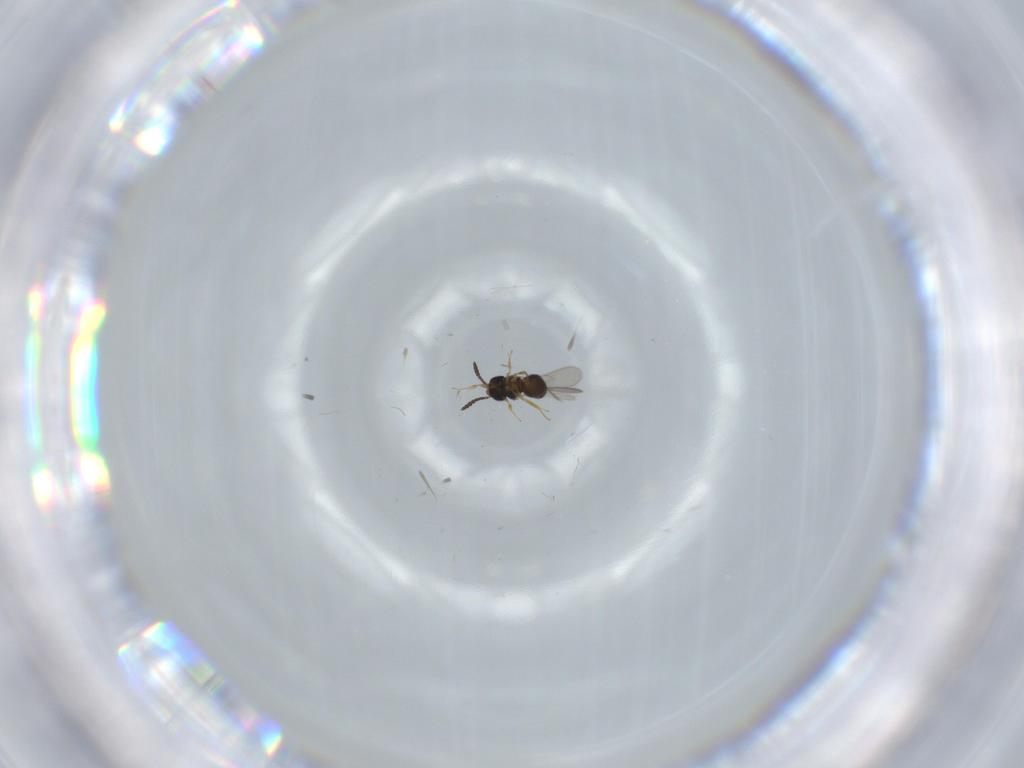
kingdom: Animalia
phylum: Arthropoda
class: Insecta
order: Hymenoptera
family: Scelionidae
